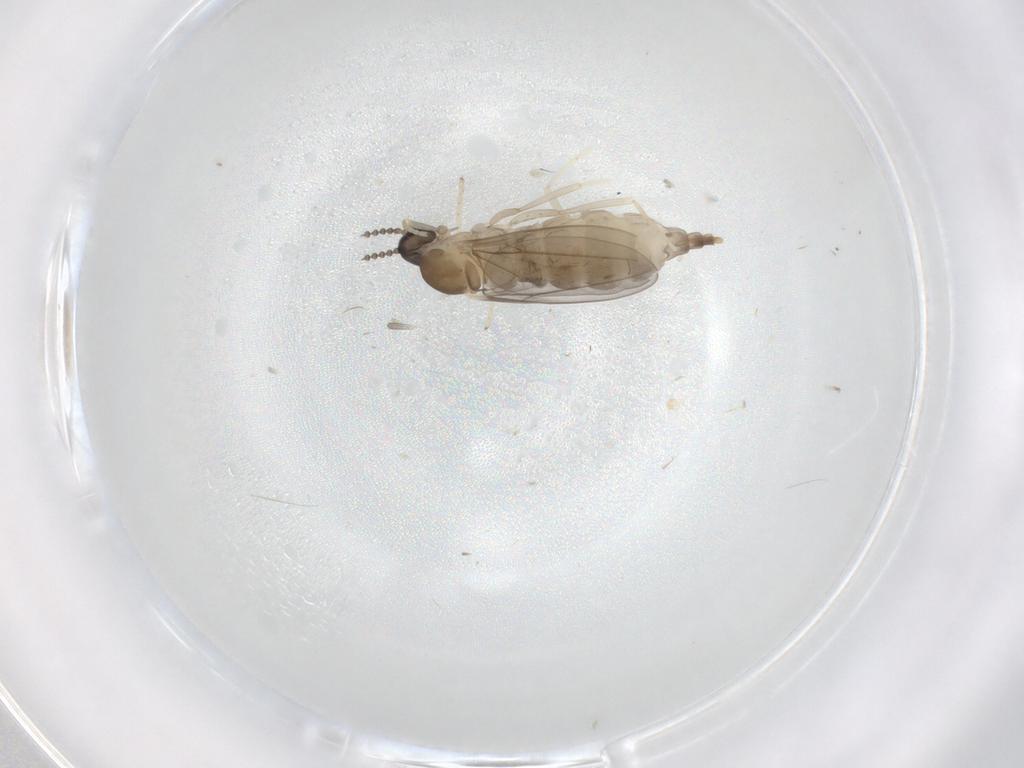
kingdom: Animalia
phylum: Arthropoda
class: Insecta
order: Diptera
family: Cecidomyiidae
